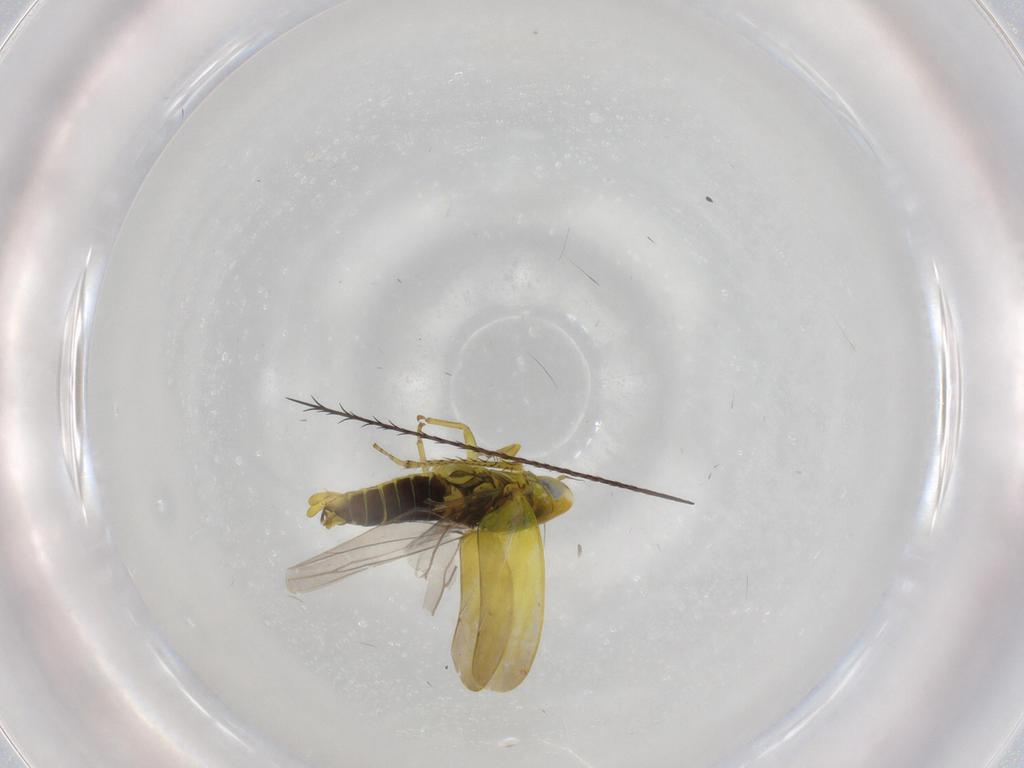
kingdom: Animalia
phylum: Arthropoda
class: Insecta
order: Hemiptera
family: Cicadellidae
